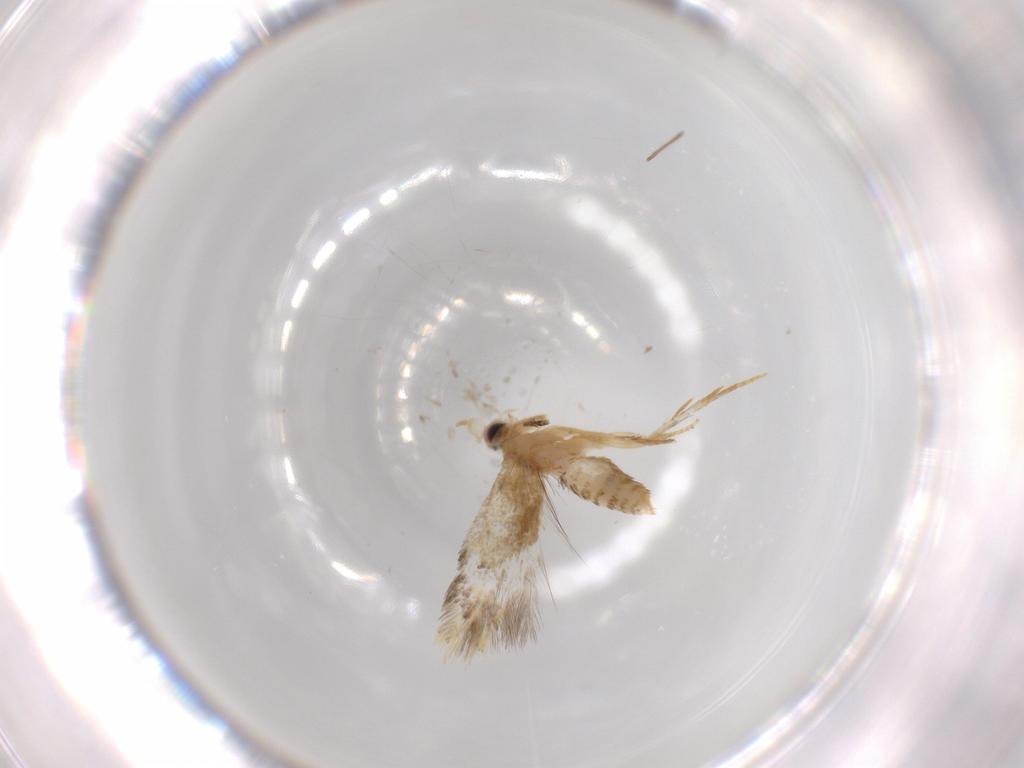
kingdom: Animalia
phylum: Arthropoda
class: Insecta
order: Lepidoptera
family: Nepticulidae
